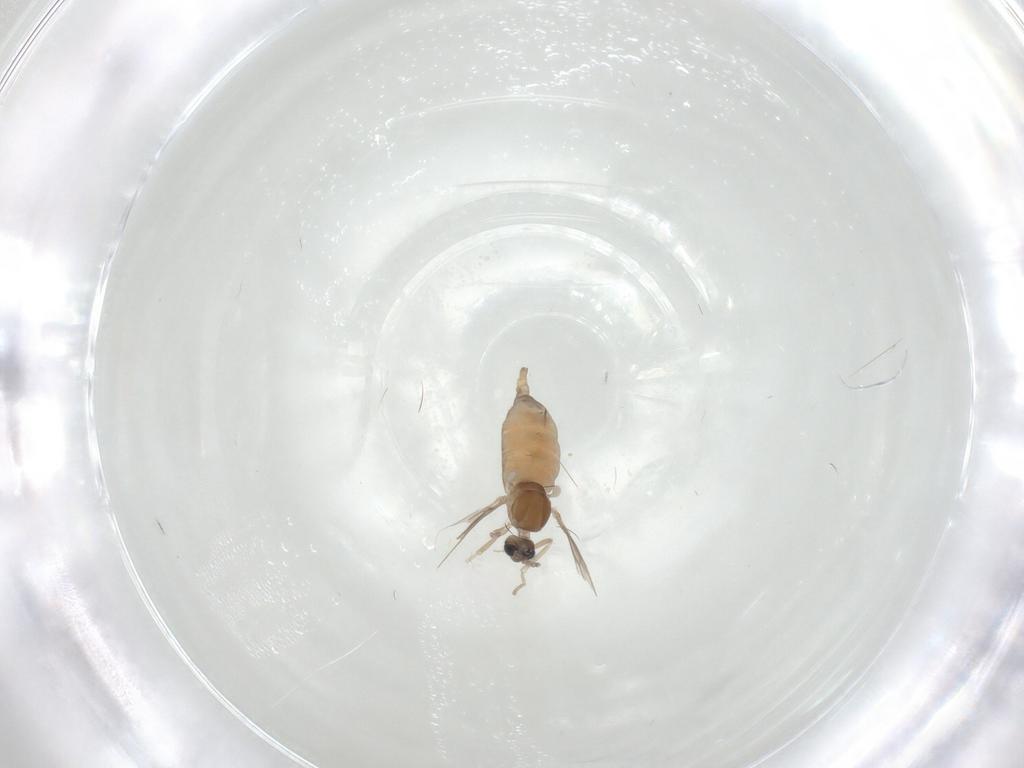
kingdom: Animalia
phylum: Arthropoda
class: Insecta
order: Diptera
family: Cecidomyiidae
